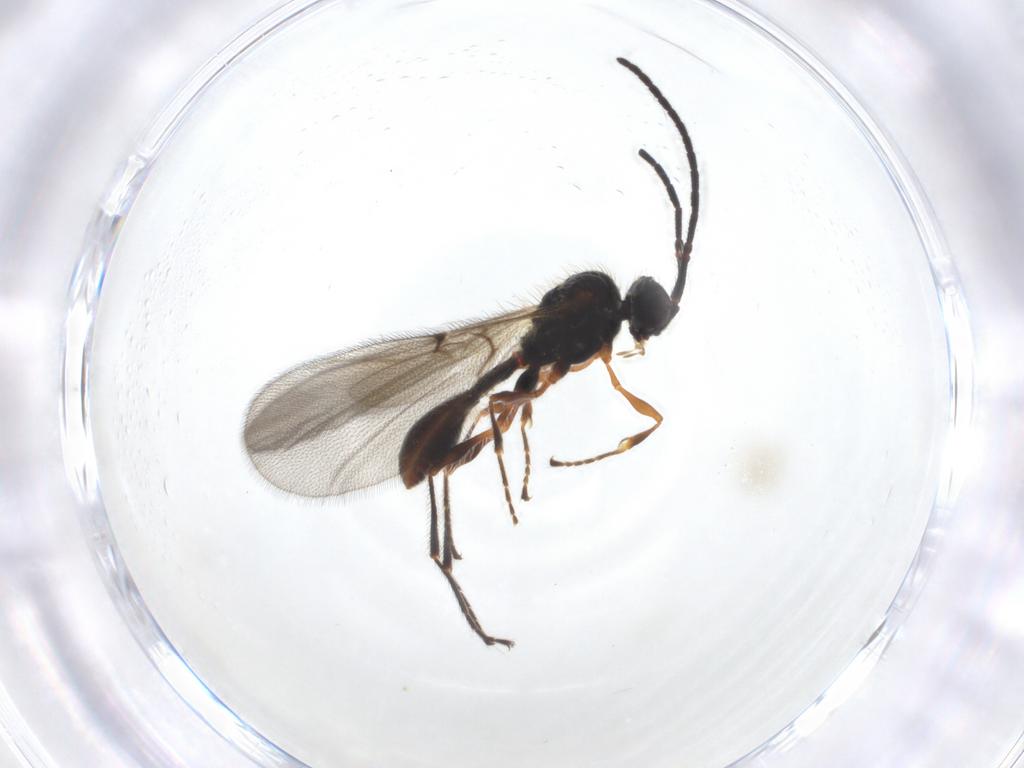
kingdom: Animalia
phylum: Arthropoda
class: Insecta
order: Hymenoptera
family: Diapriidae
